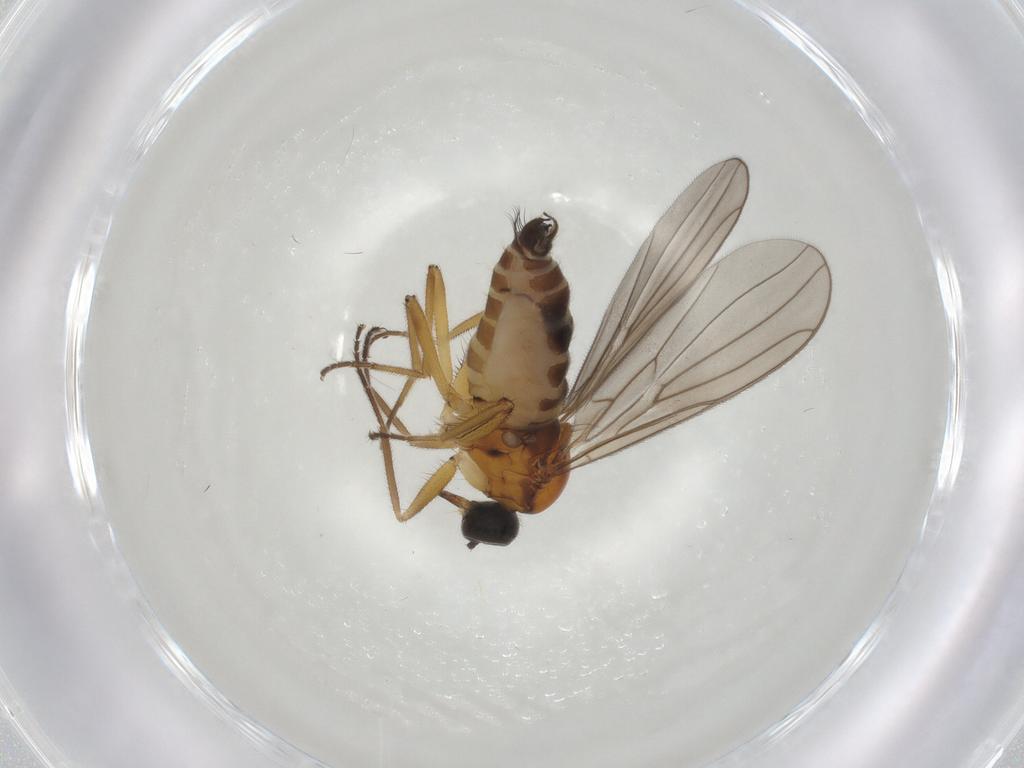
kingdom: Animalia
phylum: Arthropoda
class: Insecta
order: Diptera
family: Hybotidae
